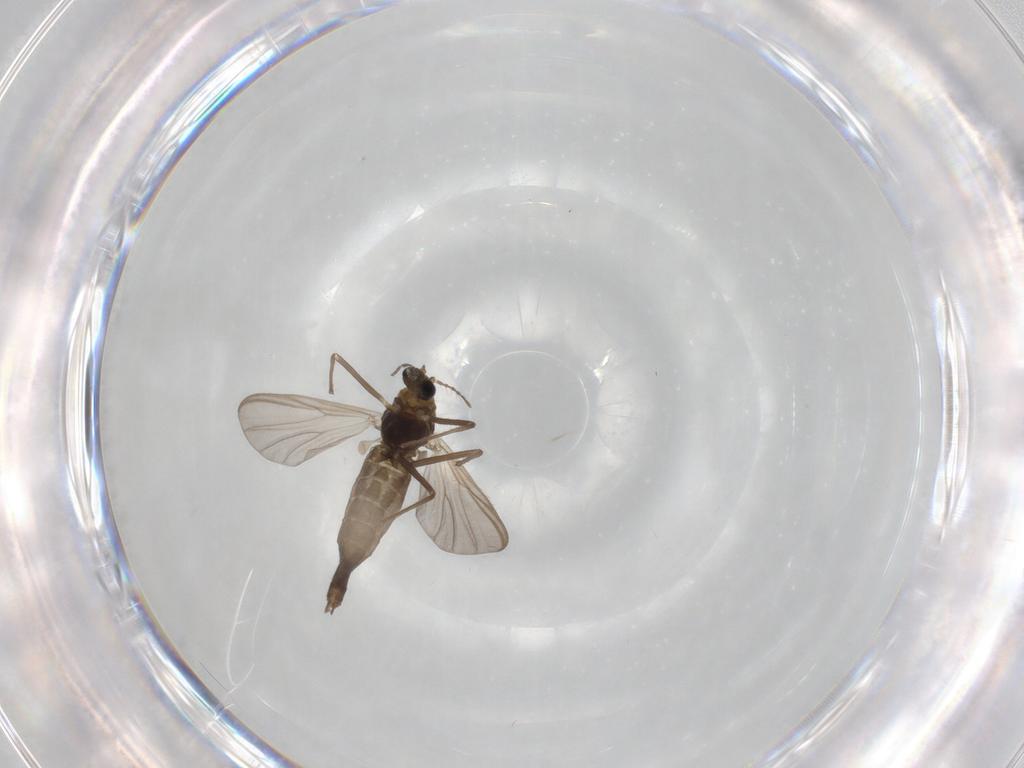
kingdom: Animalia
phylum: Arthropoda
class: Insecta
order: Diptera
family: Chironomidae
